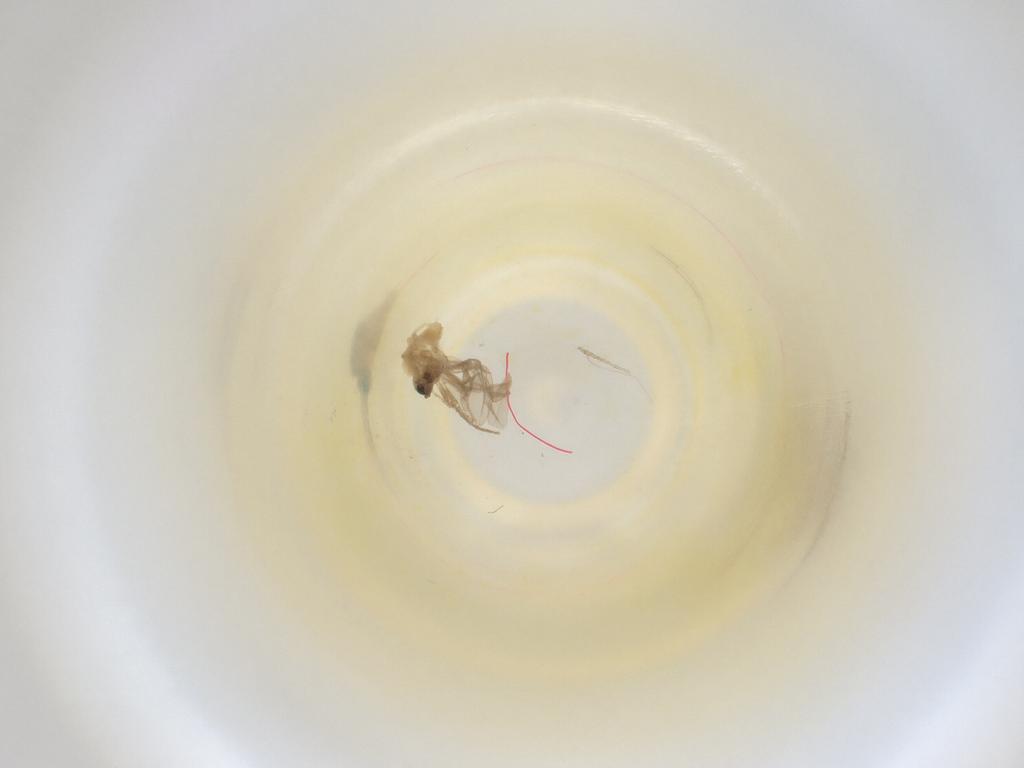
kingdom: Animalia
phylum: Arthropoda
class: Insecta
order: Diptera
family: Cecidomyiidae
